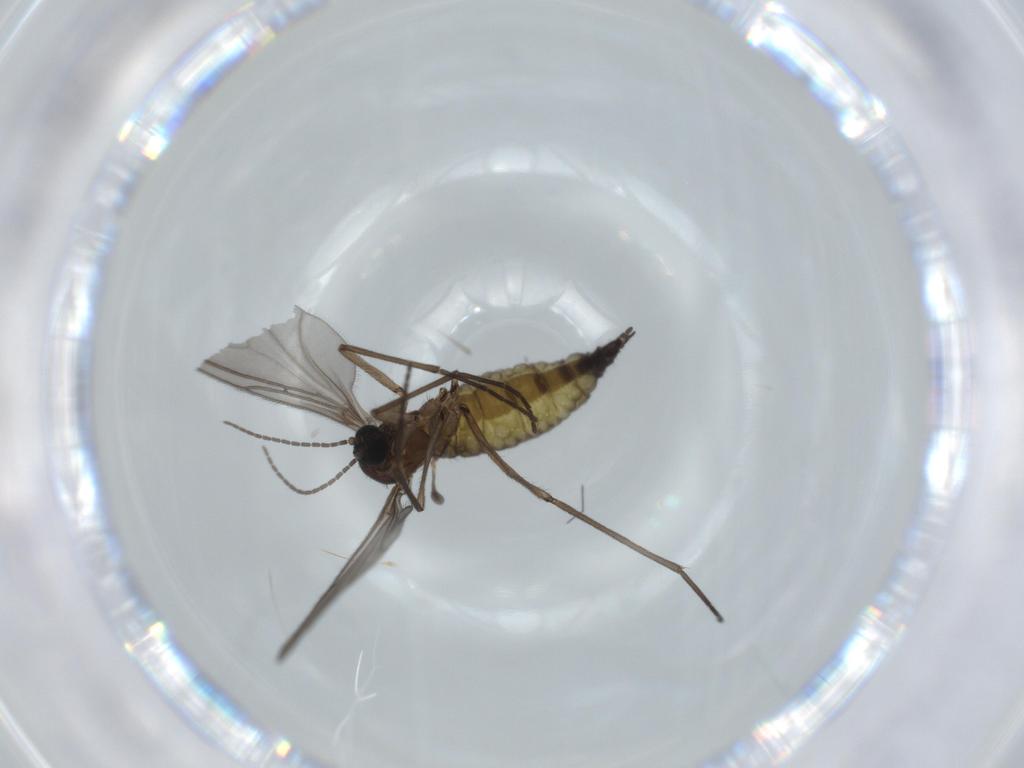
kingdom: Animalia
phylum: Arthropoda
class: Insecta
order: Diptera
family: Sciaridae
